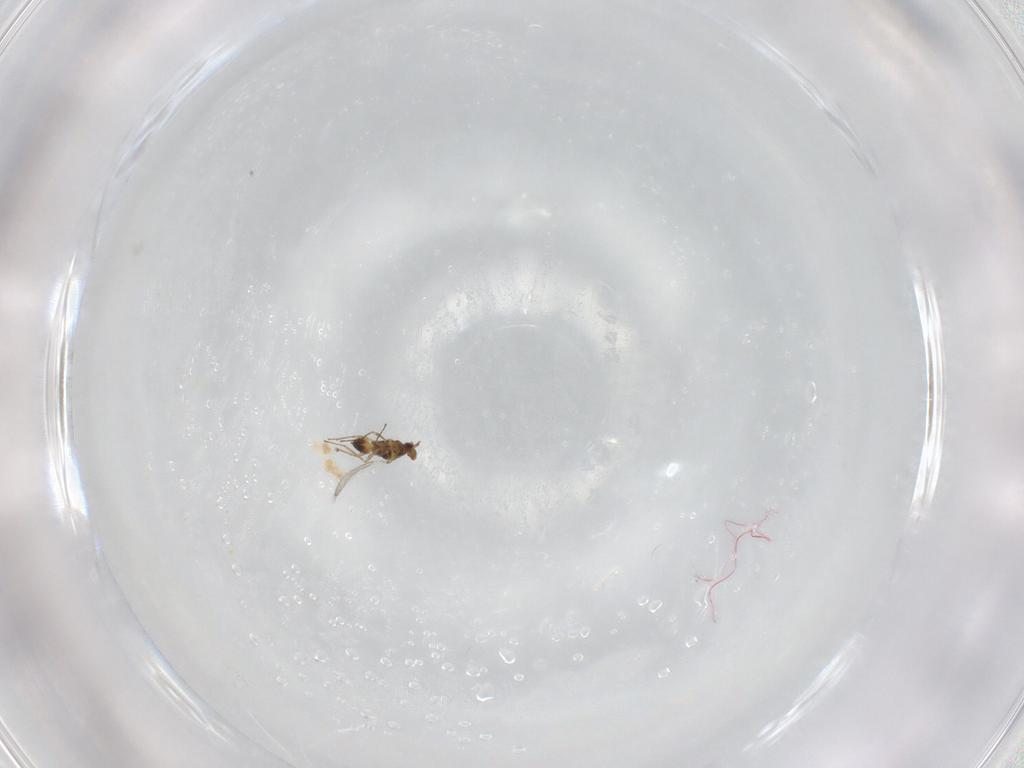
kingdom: Animalia
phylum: Arthropoda
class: Insecta
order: Hymenoptera
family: Eulophidae
